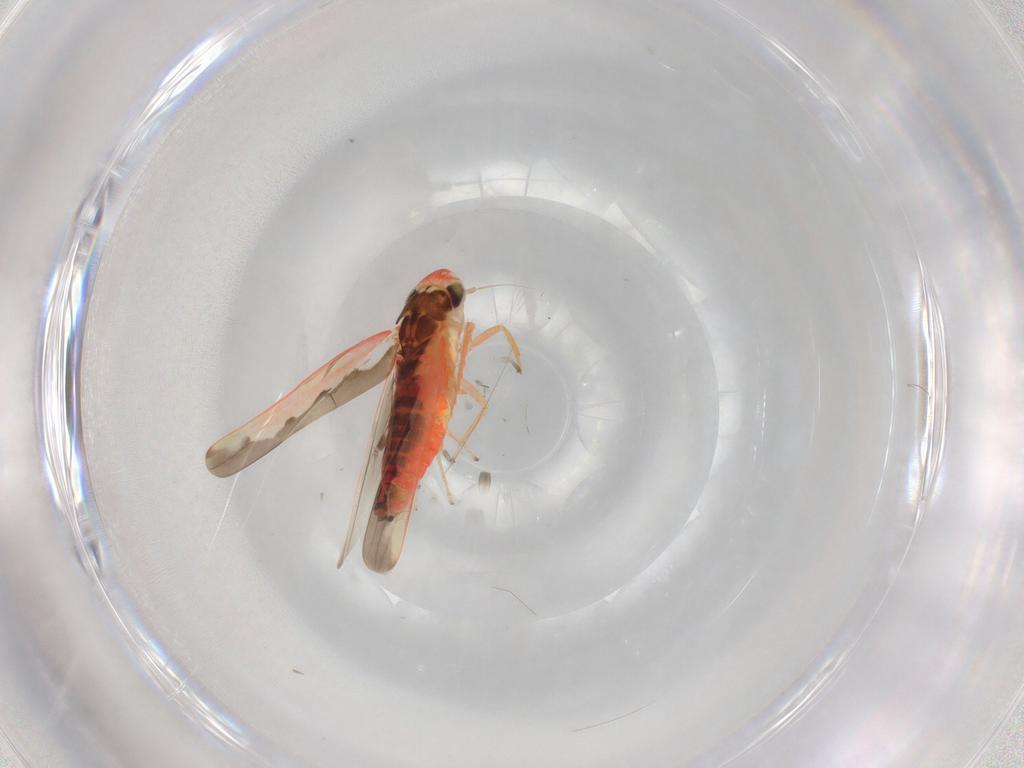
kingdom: Animalia
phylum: Arthropoda
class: Insecta
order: Hemiptera
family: Cicadellidae
